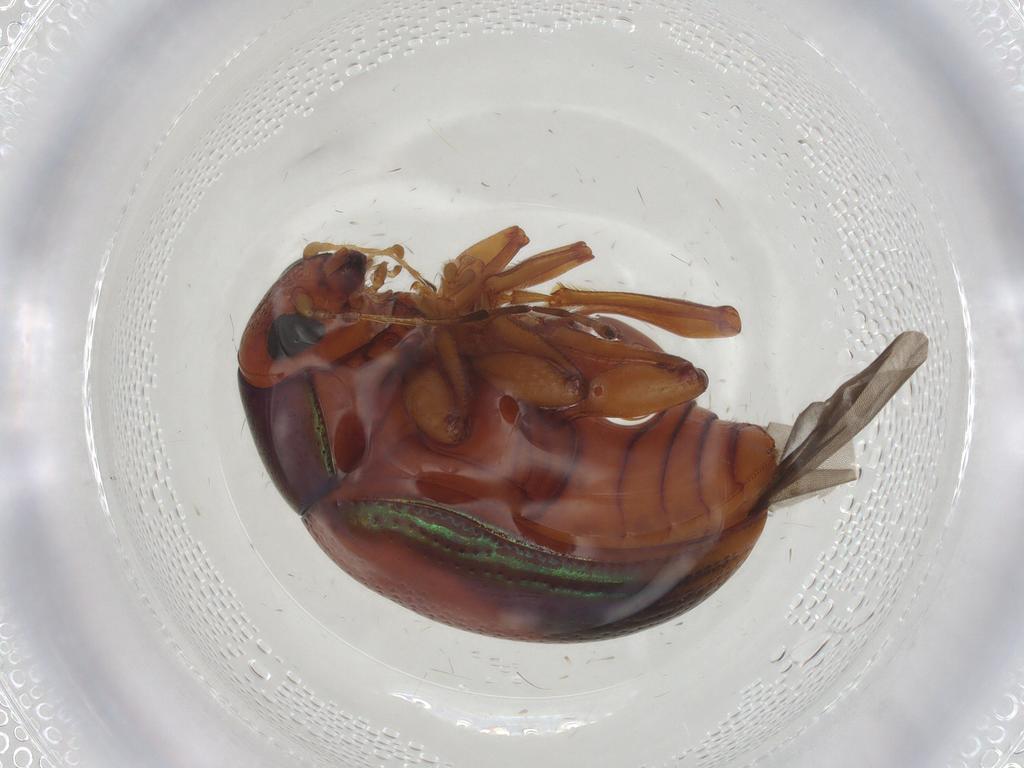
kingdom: Animalia
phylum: Arthropoda
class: Insecta
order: Coleoptera
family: Chrysomelidae
